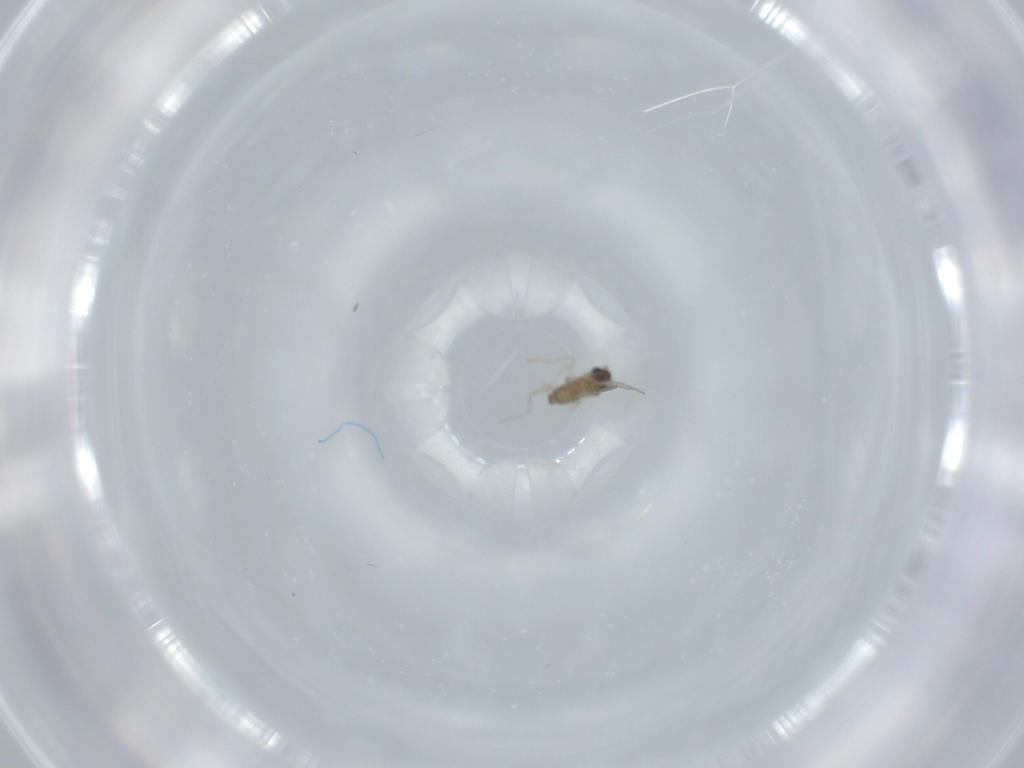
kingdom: Animalia
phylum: Arthropoda
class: Insecta
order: Diptera
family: Cecidomyiidae
